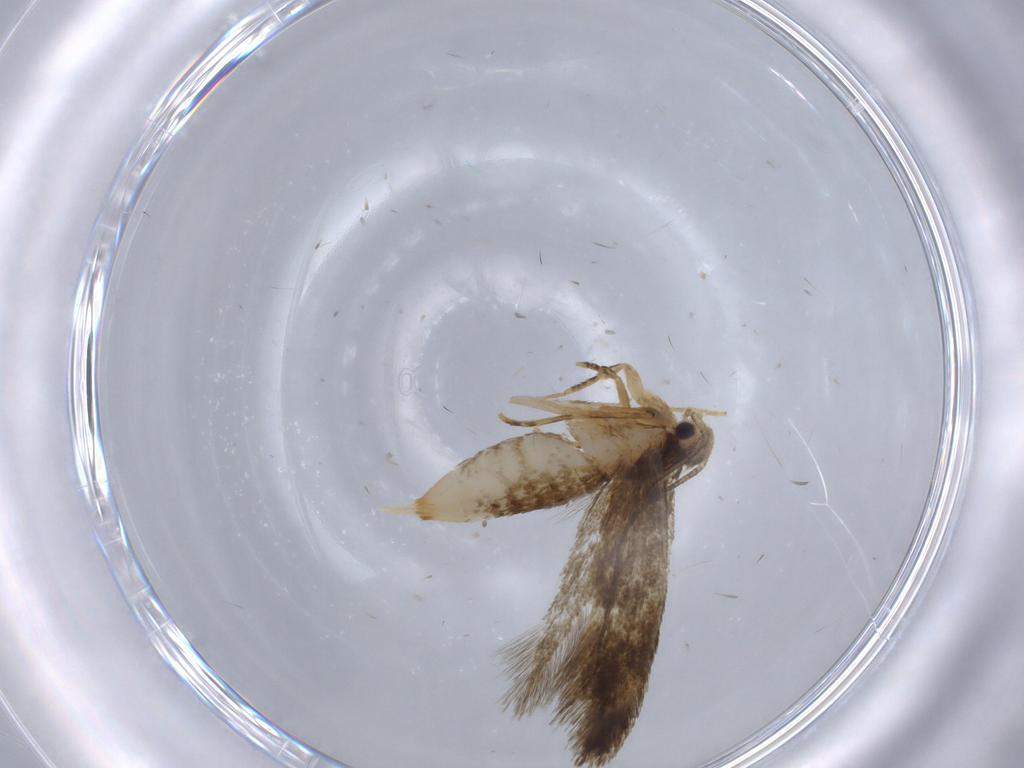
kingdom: Animalia
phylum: Arthropoda
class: Insecta
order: Lepidoptera
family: Tineidae
